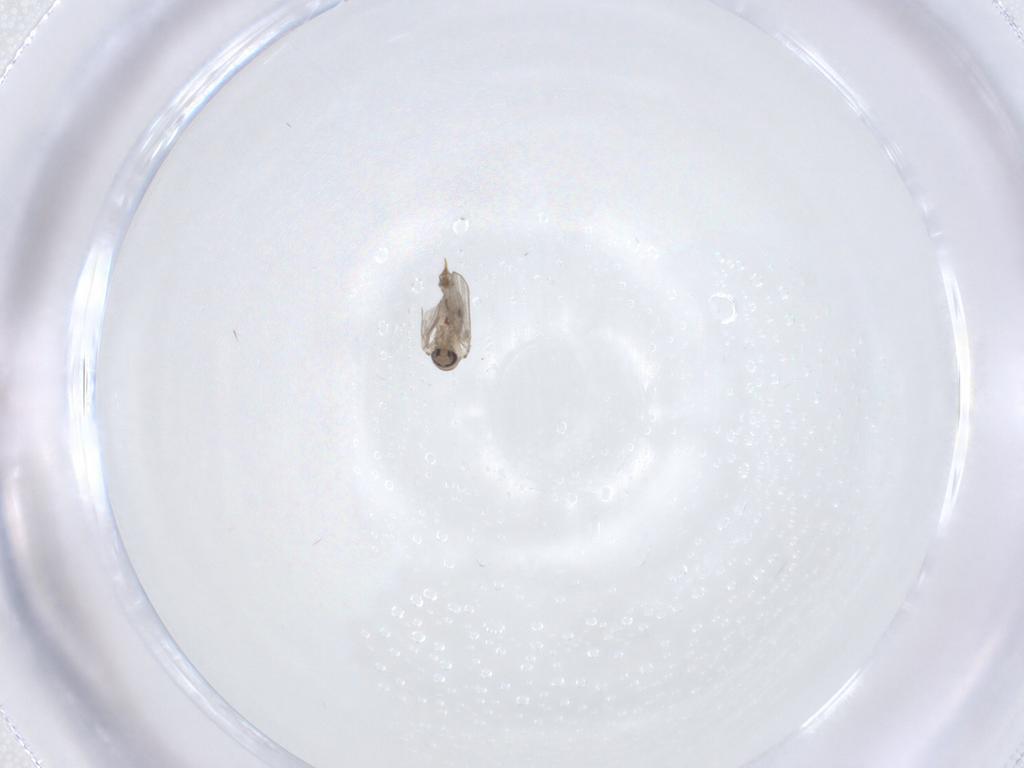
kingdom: Animalia
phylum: Arthropoda
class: Insecta
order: Diptera
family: Psychodidae
